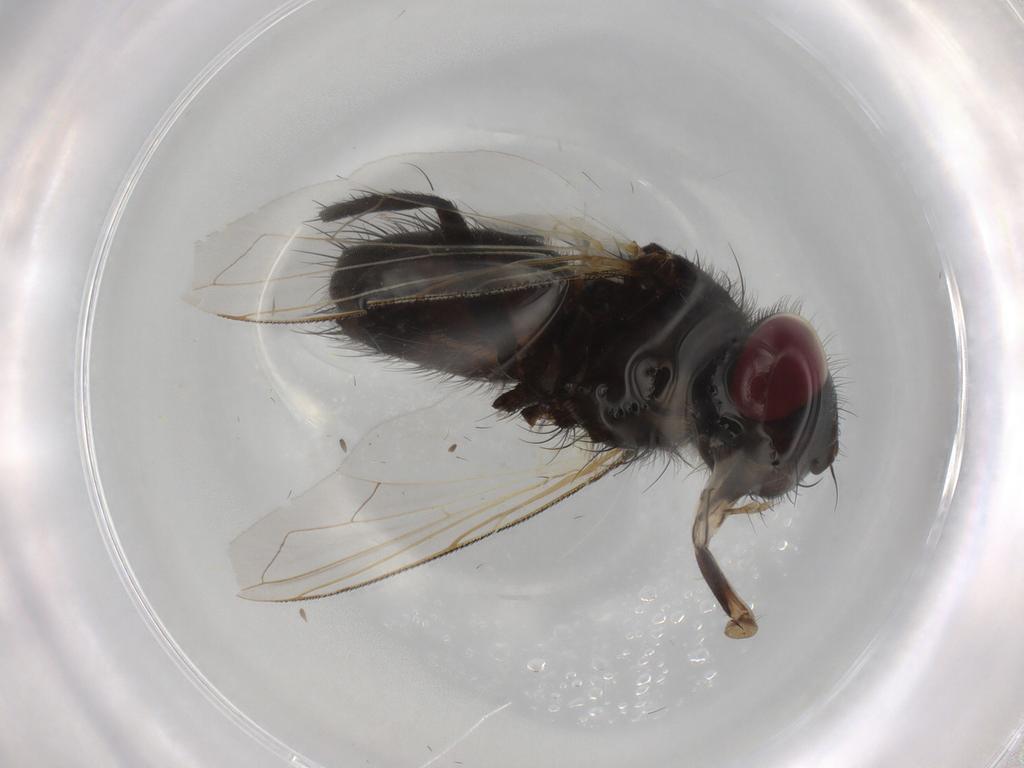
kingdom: Animalia
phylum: Arthropoda
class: Insecta
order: Diptera
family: Tachinidae
